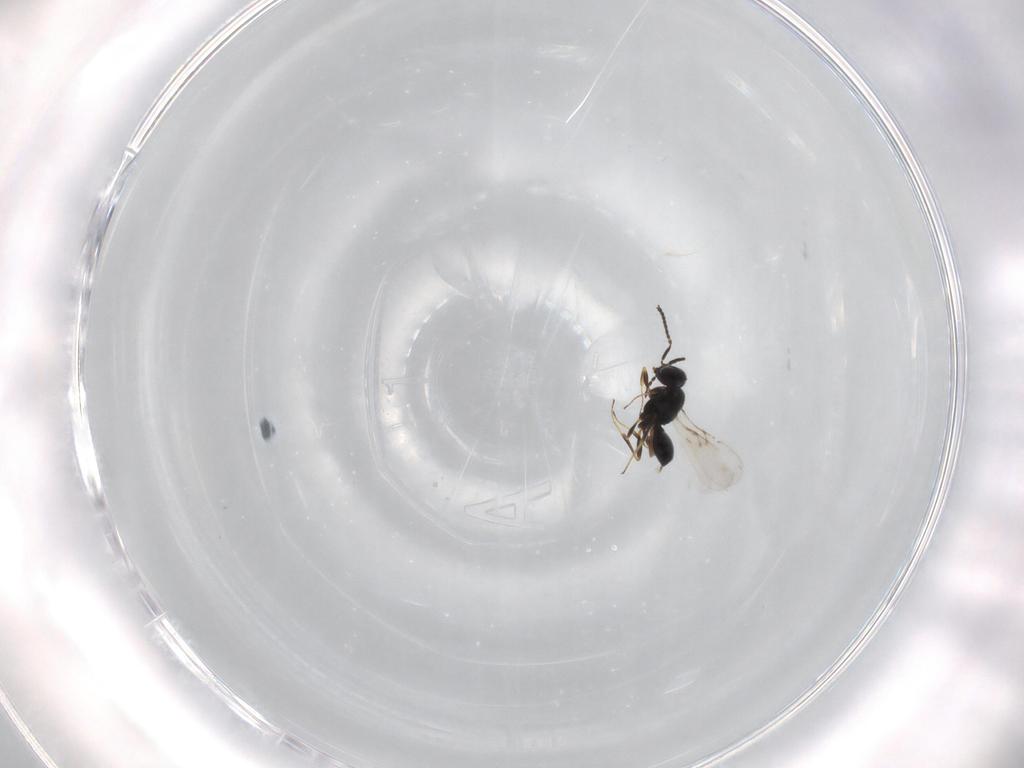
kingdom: Animalia
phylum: Arthropoda
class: Insecta
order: Hymenoptera
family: Scelionidae
